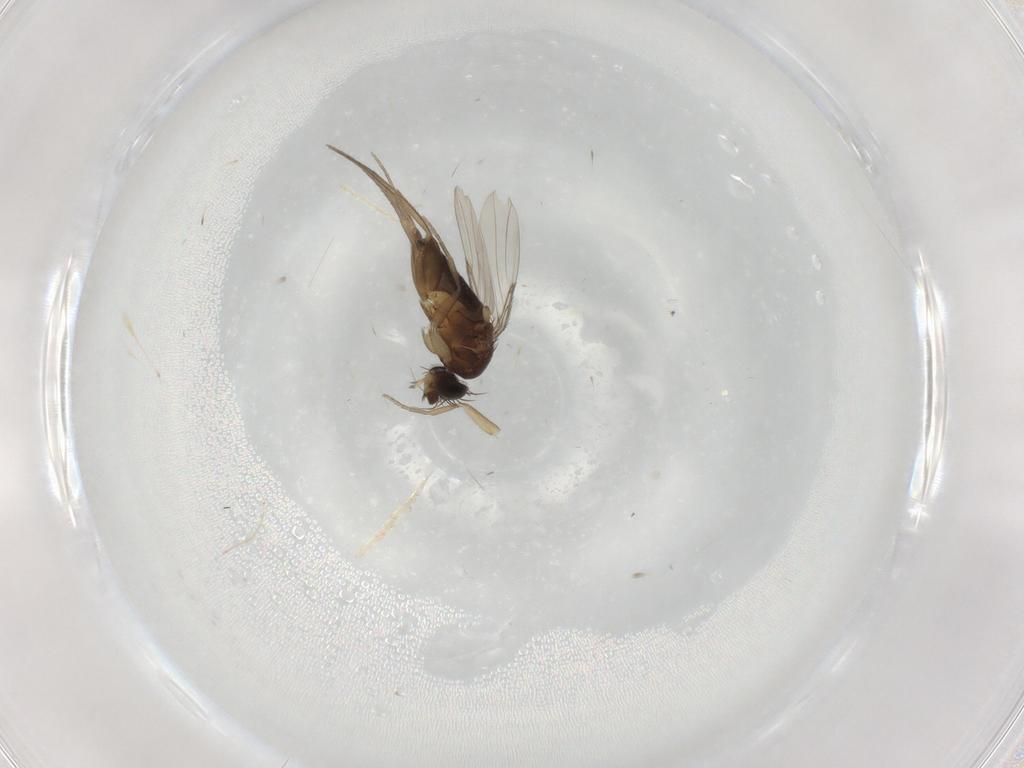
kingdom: Animalia
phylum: Arthropoda
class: Insecta
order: Diptera
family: Phoridae
